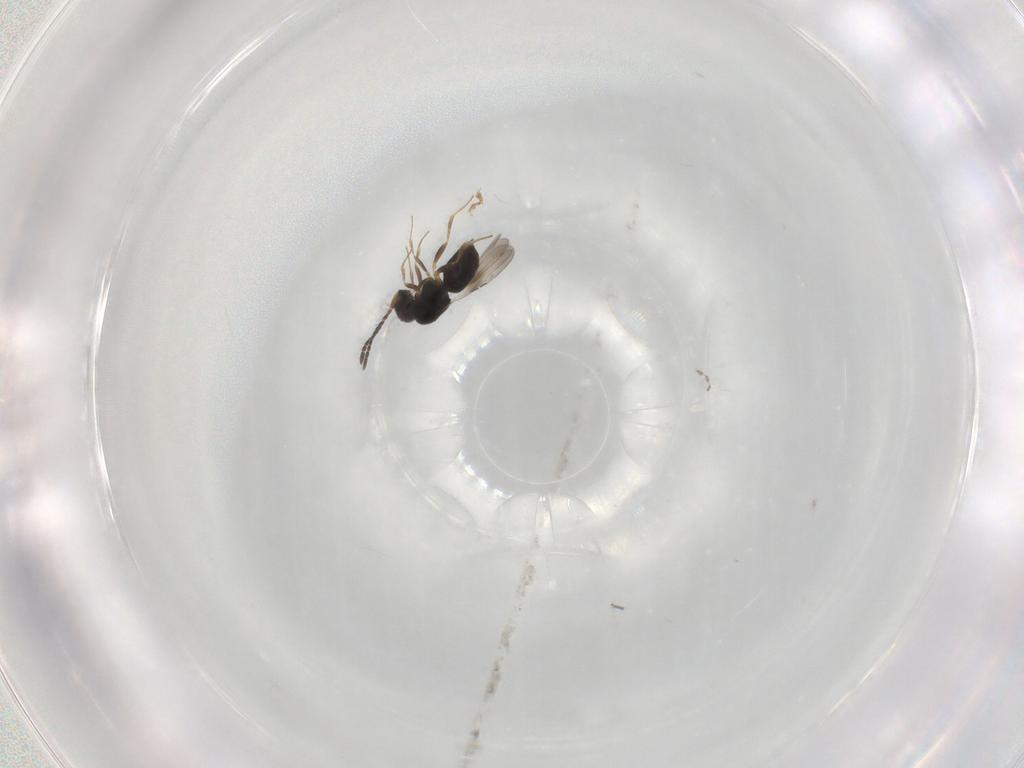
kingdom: Animalia
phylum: Arthropoda
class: Insecta
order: Hymenoptera
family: Ceraphronidae
